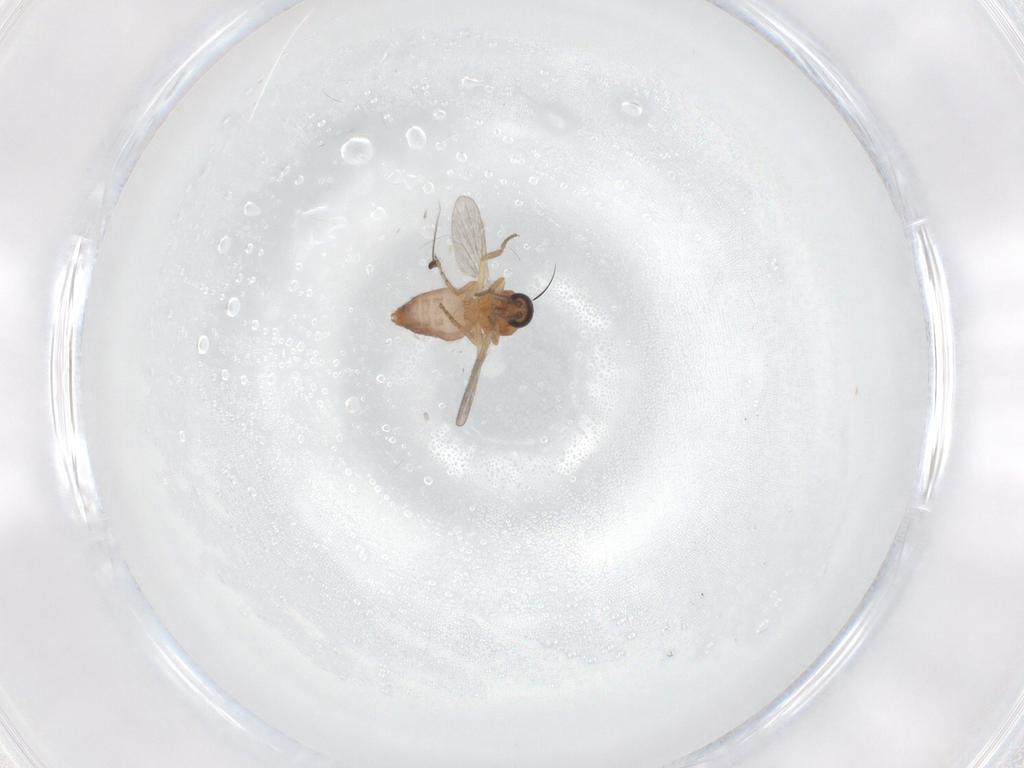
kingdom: Animalia
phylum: Arthropoda
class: Insecta
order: Diptera
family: Ceratopogonidae
